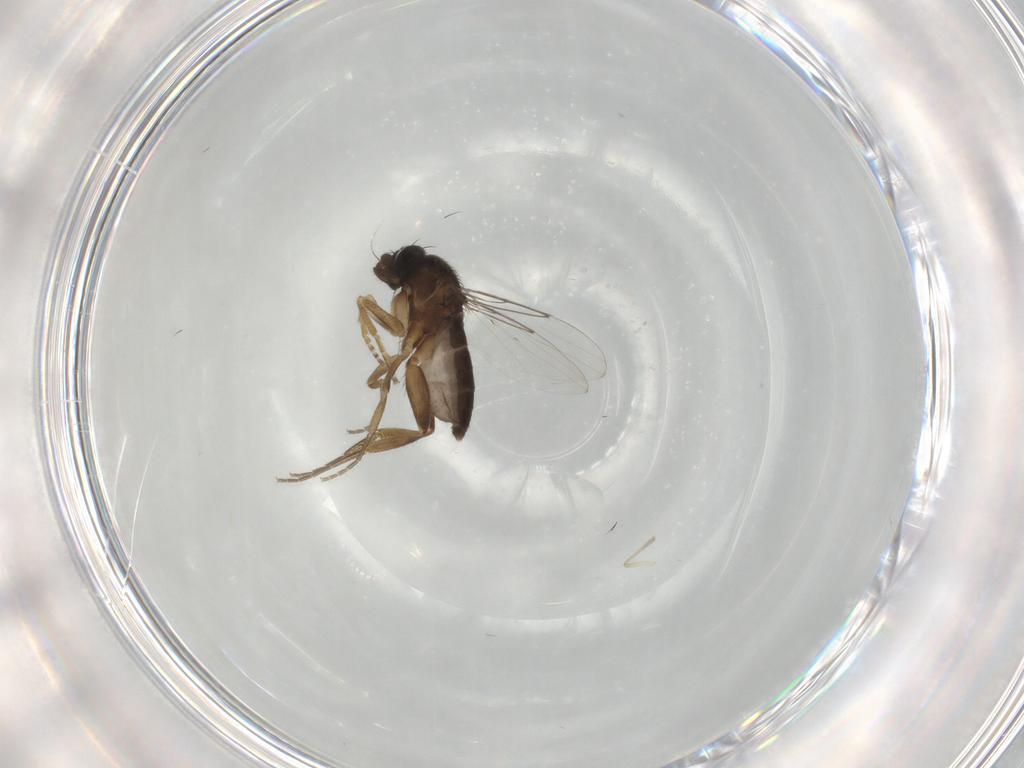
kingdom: Animalia
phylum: Arthropoda
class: Insecta
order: Diptera
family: Phoridae
